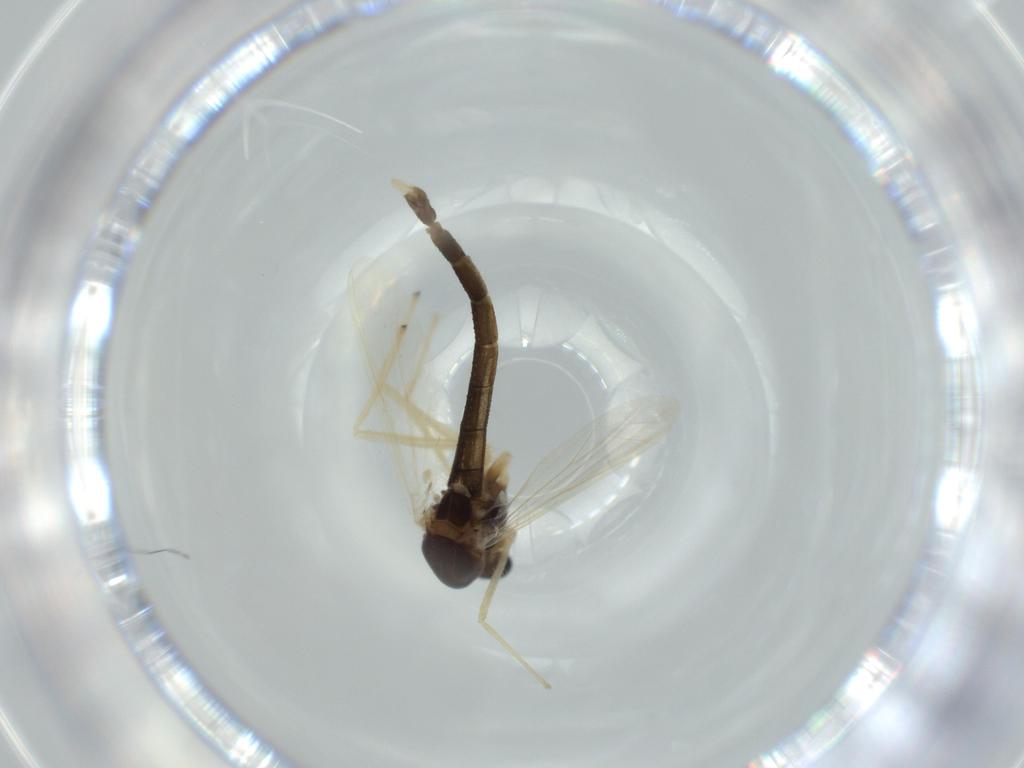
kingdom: Animalia
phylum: Arthropoda
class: Insecta
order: Diptera
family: Chironomidae
